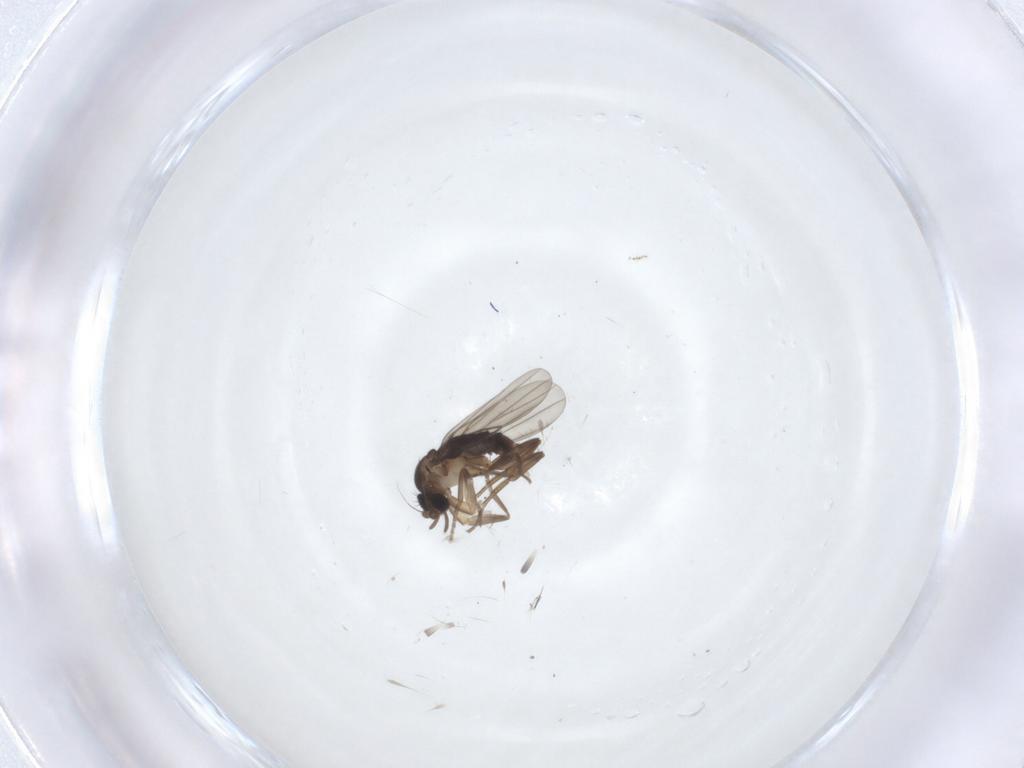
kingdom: Animalia
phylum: Arthropoda
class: Insecta
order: Diptera
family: Cecidomyiidae
